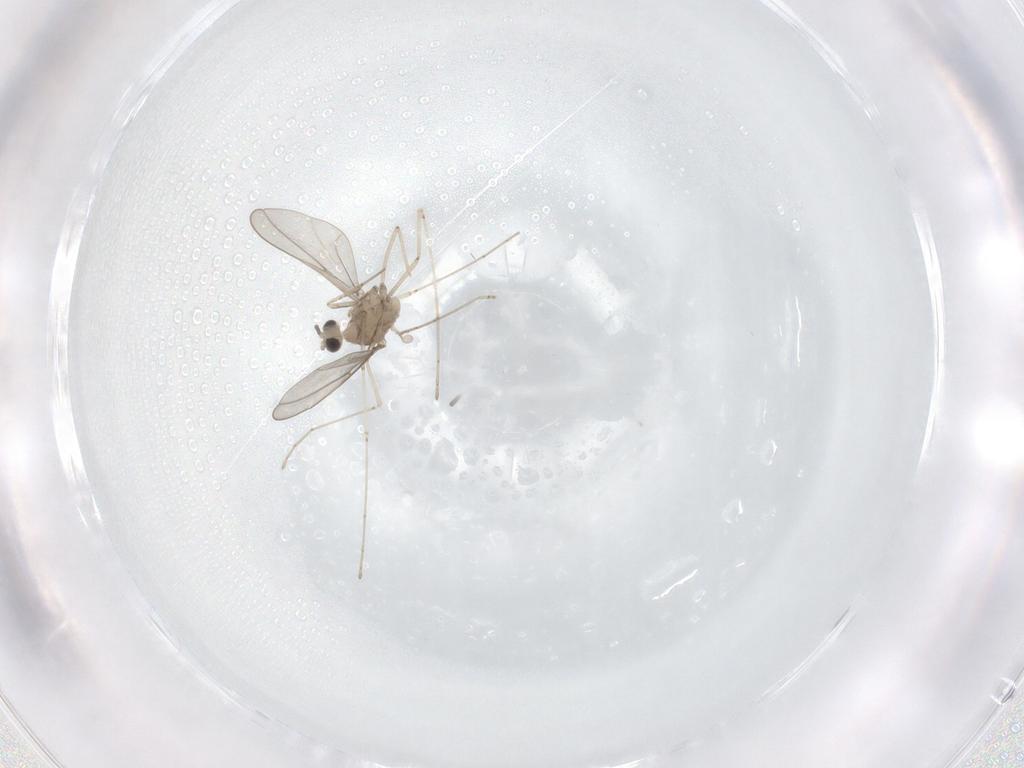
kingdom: Animalia
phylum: Arthropoda
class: Insecta
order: Diptera
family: Cecidomyiidae
